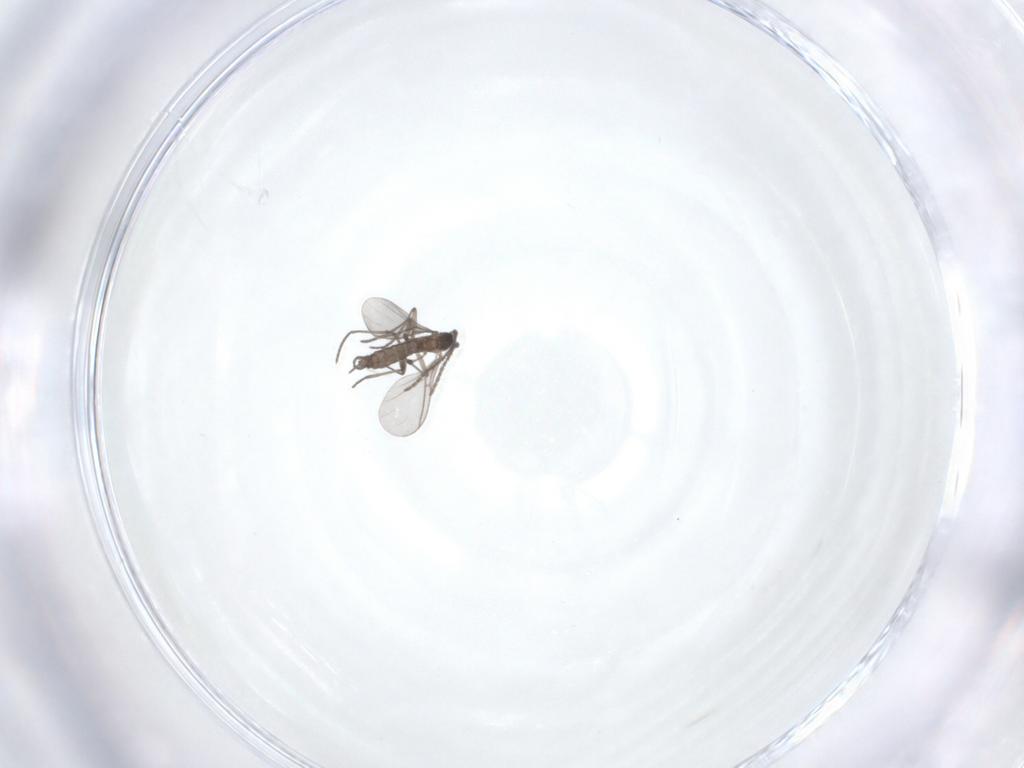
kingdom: Animalia
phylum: Arthropoda
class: Insecta
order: Diptera
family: Sciaridae
